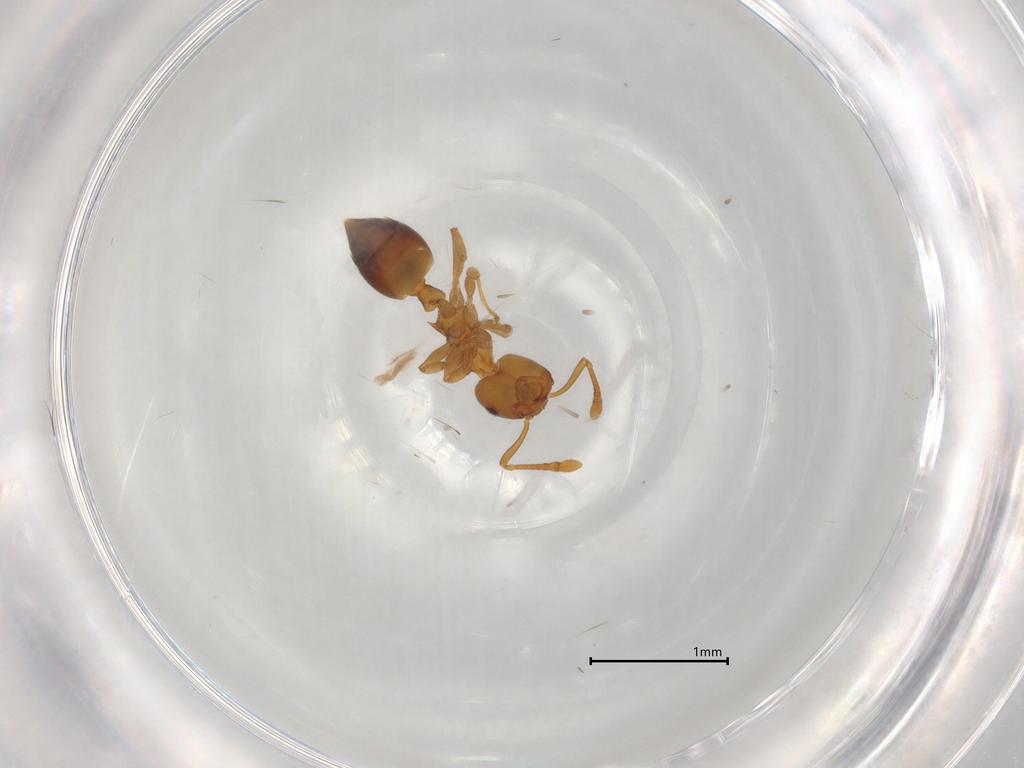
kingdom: Animalia
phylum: Arthropoda
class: Insecta
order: Hymenoptera
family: Formicidae
